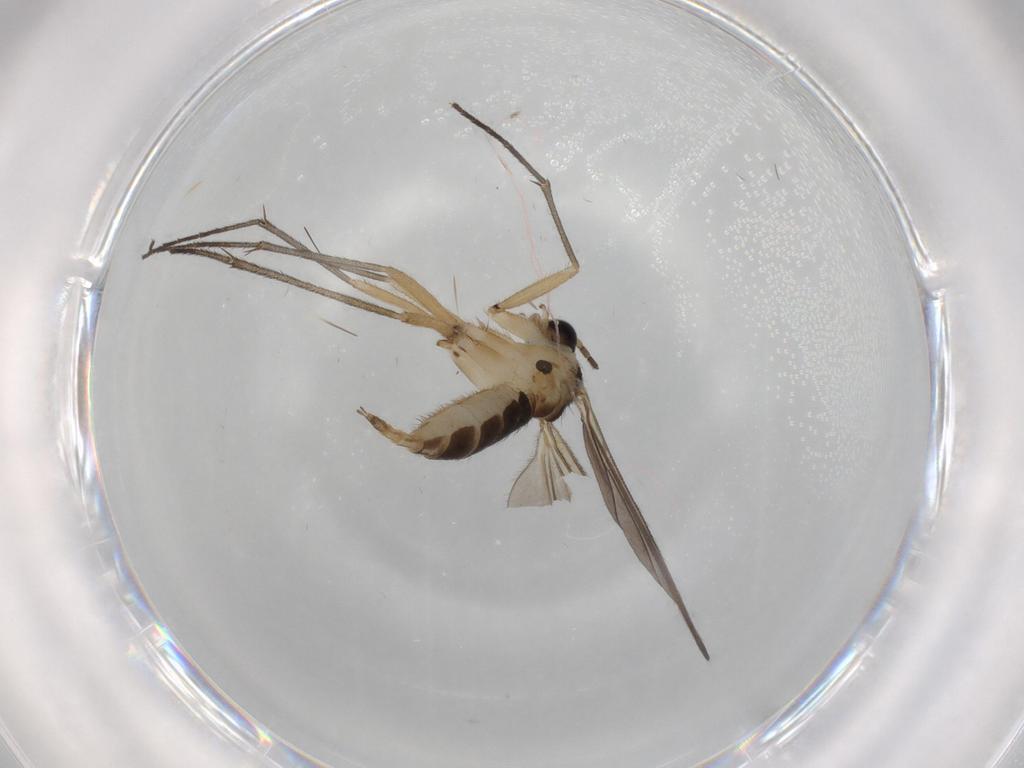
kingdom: Animalia
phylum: Arthropoda
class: Insecta
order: Diptera
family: Sciaridae
